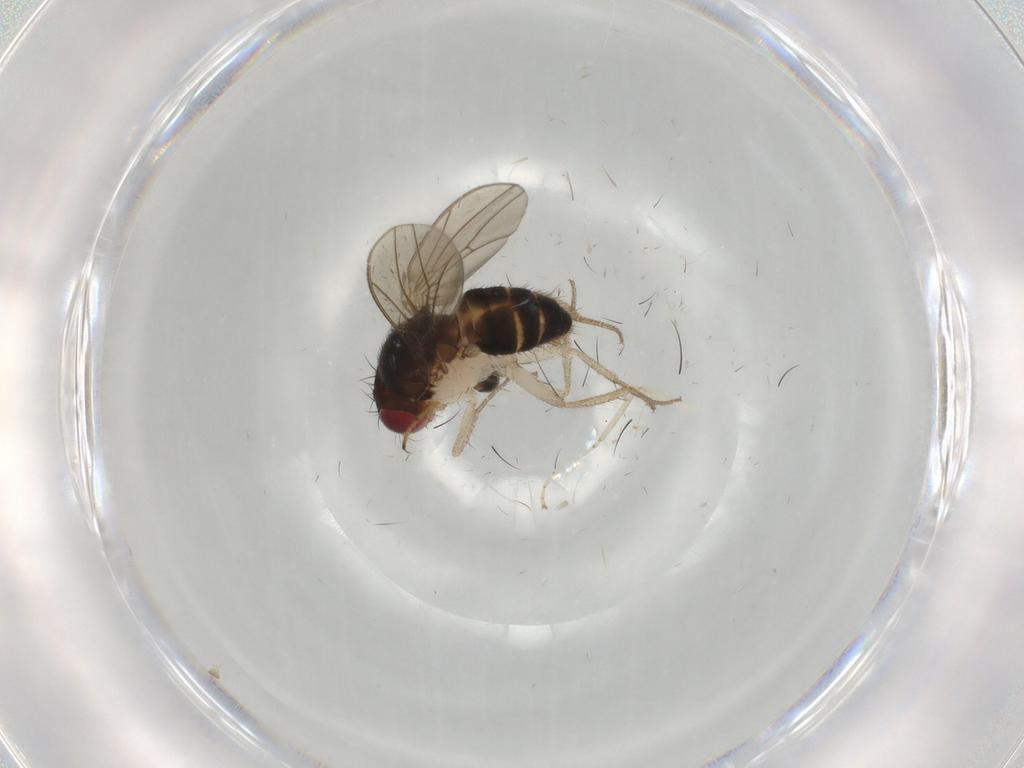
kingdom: Animalia
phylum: Arthropoda
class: Insecta
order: Diptera
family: Drosophilidae
